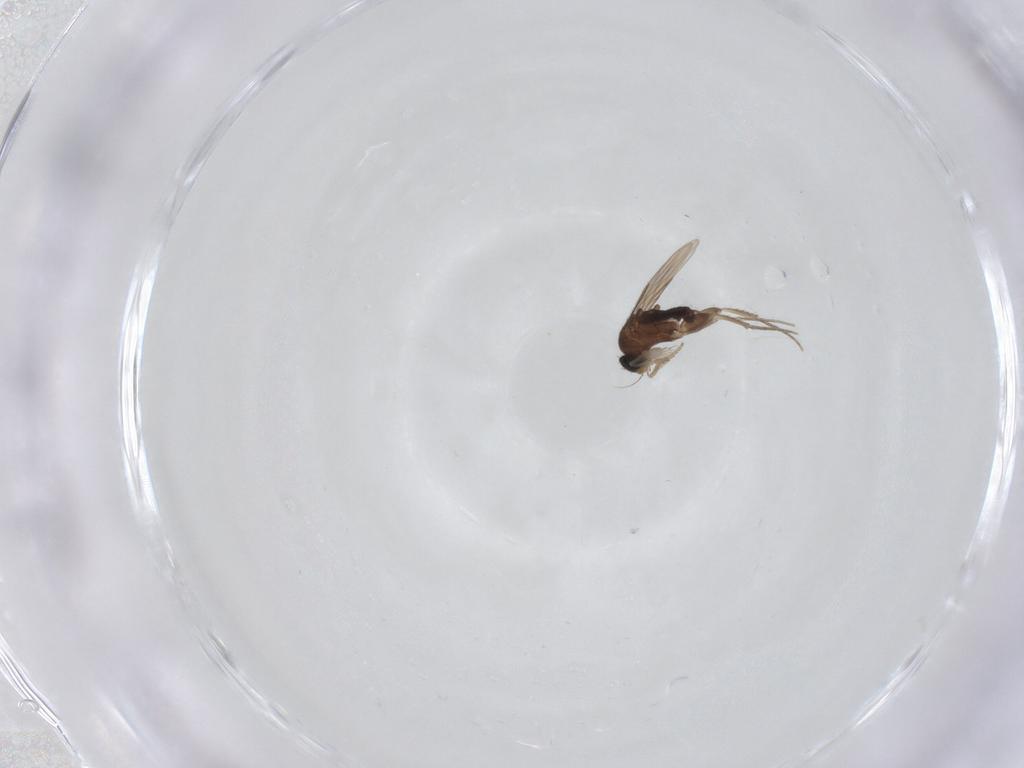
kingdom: Animalia
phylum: Arthropoda
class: Insecta
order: Diptera
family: Phoridae
